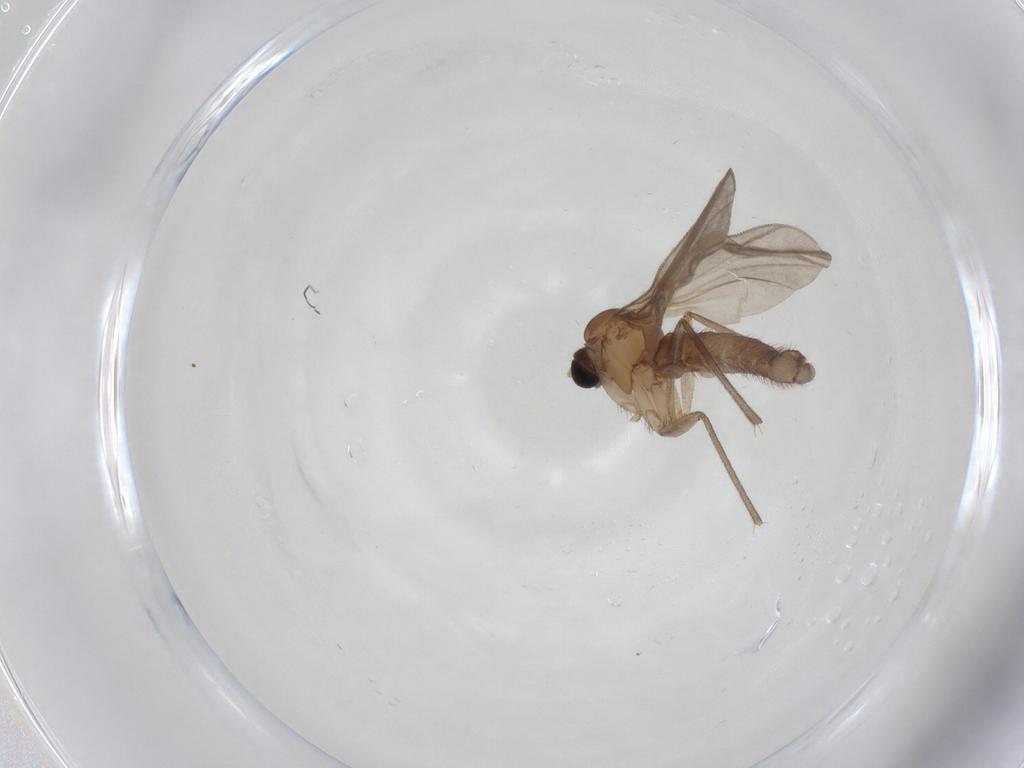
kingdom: Animalia
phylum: Arthropoda
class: Insecta
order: Diptera
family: Sciaridae
